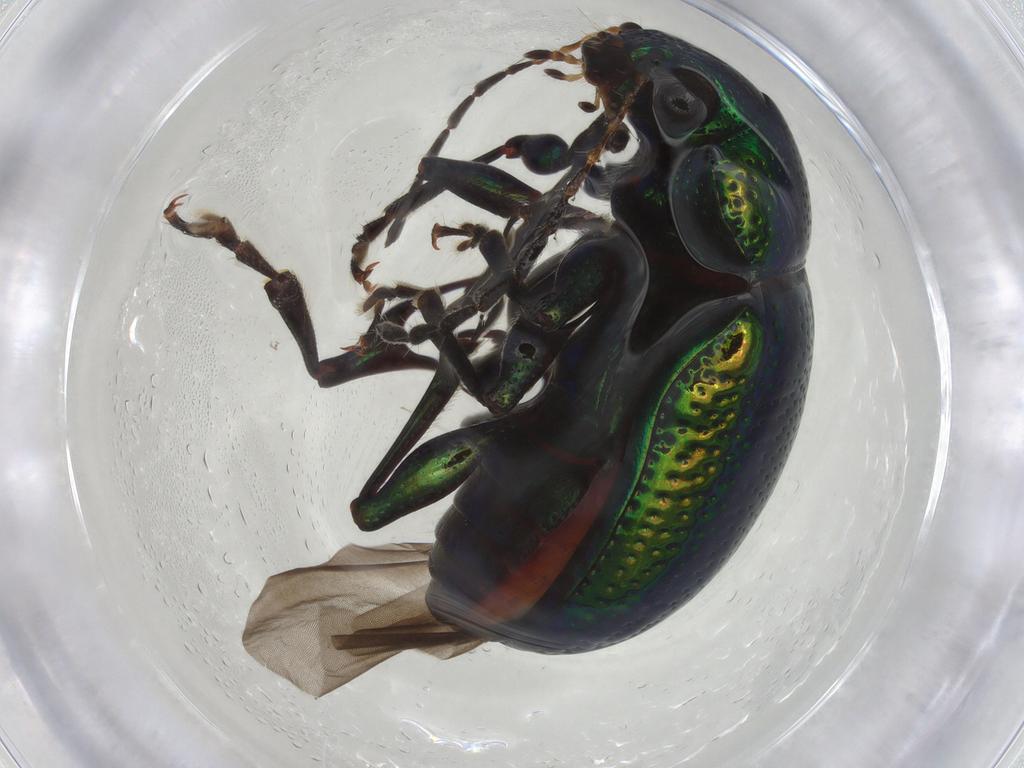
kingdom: Animalia
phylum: Arthropoda
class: Insecta
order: Coleoptera
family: Chrysomelidae
